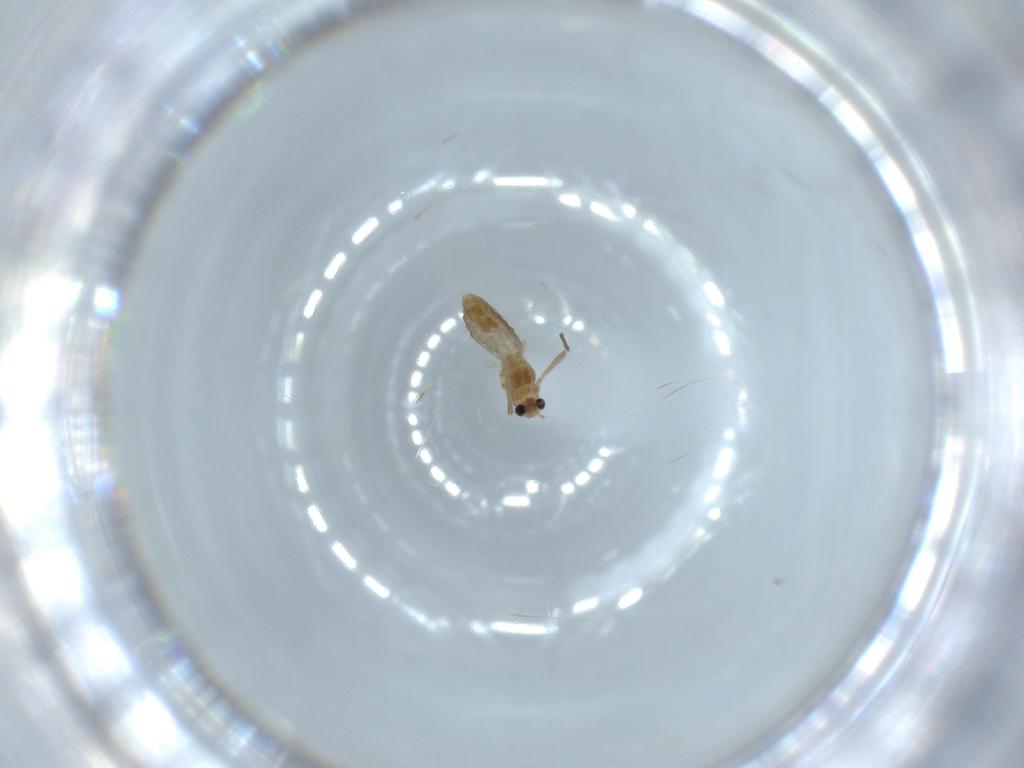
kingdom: Animalia
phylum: Arthropoda
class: Insecta
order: Diptera
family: Chironomidae
